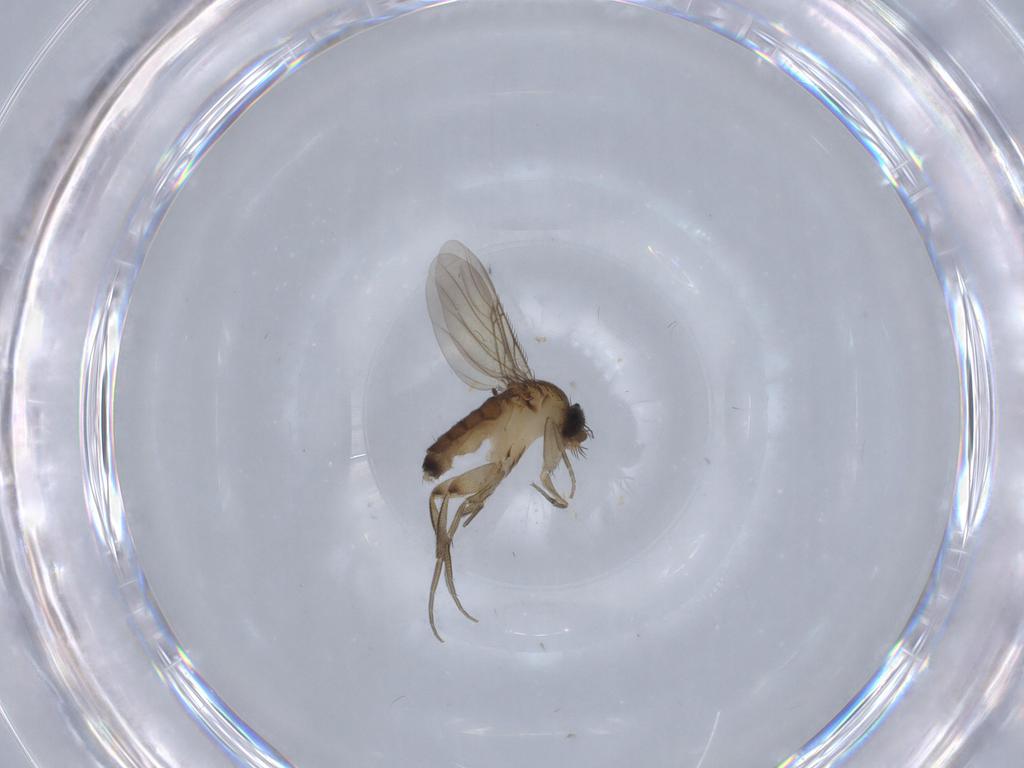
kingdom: Animalia
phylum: Arthropoda
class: Insecta
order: Diptera
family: Phoridae
